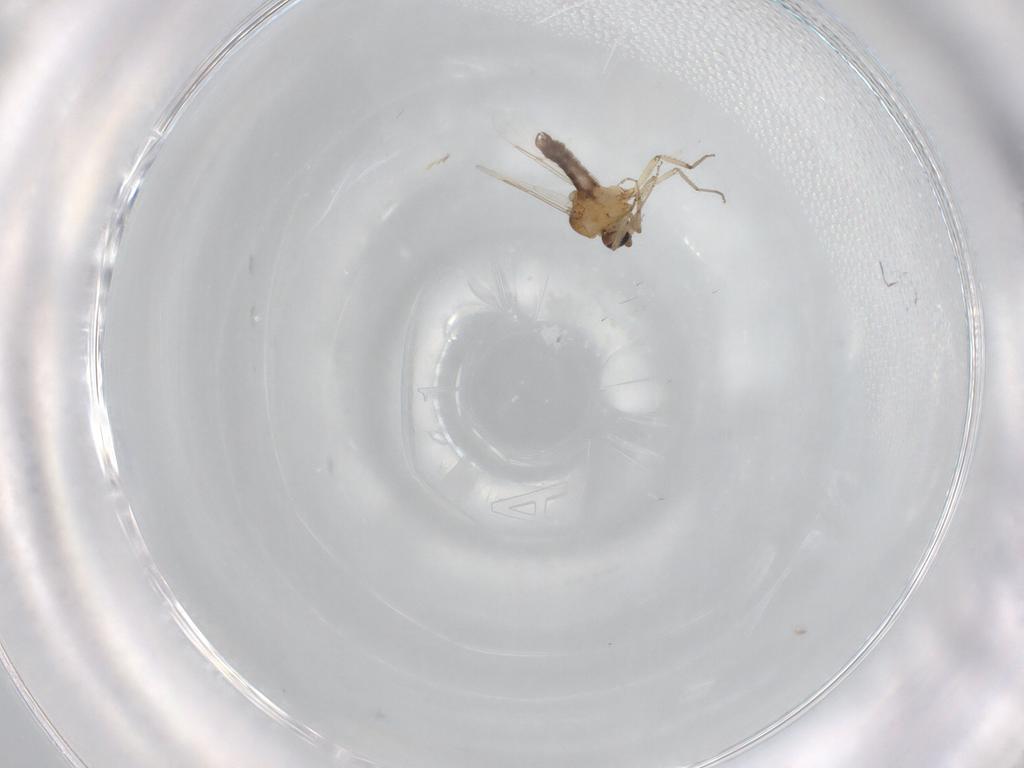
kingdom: Animalia
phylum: Arthropoda
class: Insecta
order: Diptera
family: Ceratopogonidae
